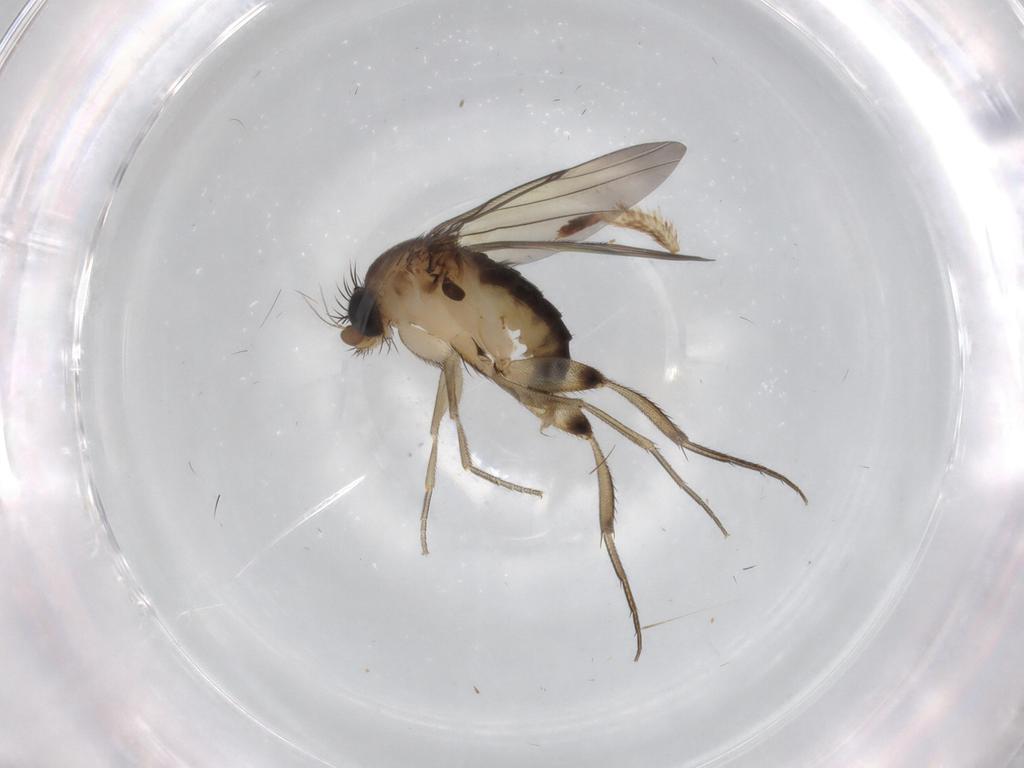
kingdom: Animalia
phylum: Arthropoda
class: Insecta
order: Diptera
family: Phoridae
